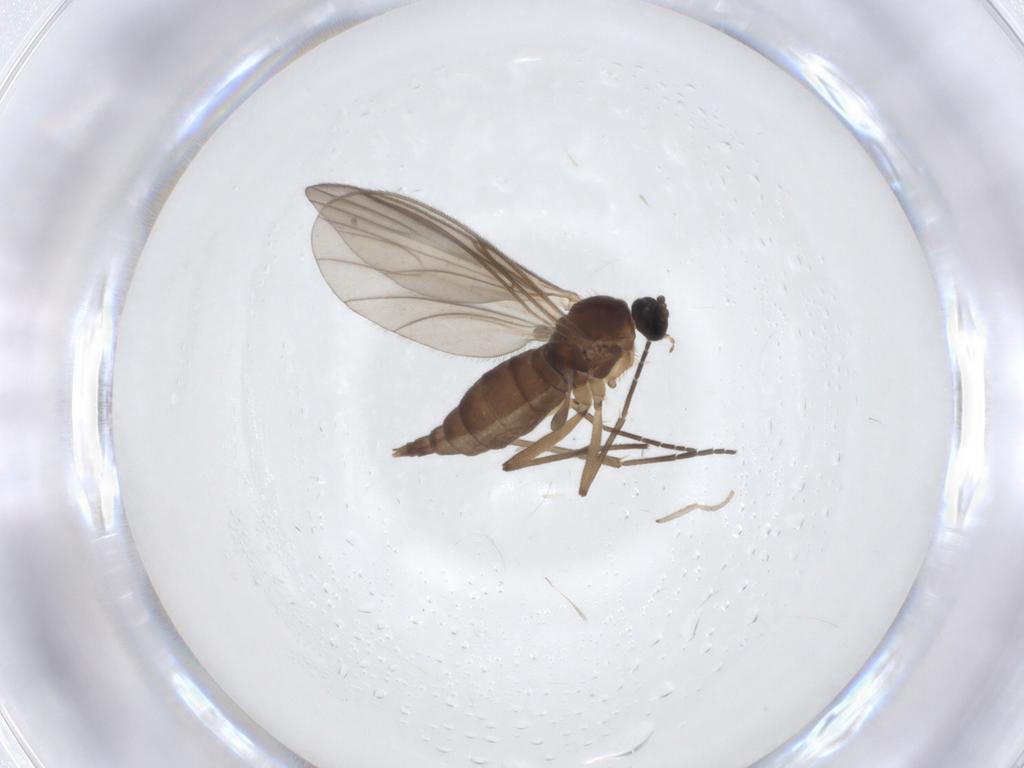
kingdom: Animalia
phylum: Arthropoda
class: Insecta
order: Diptera
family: Sciaridae
